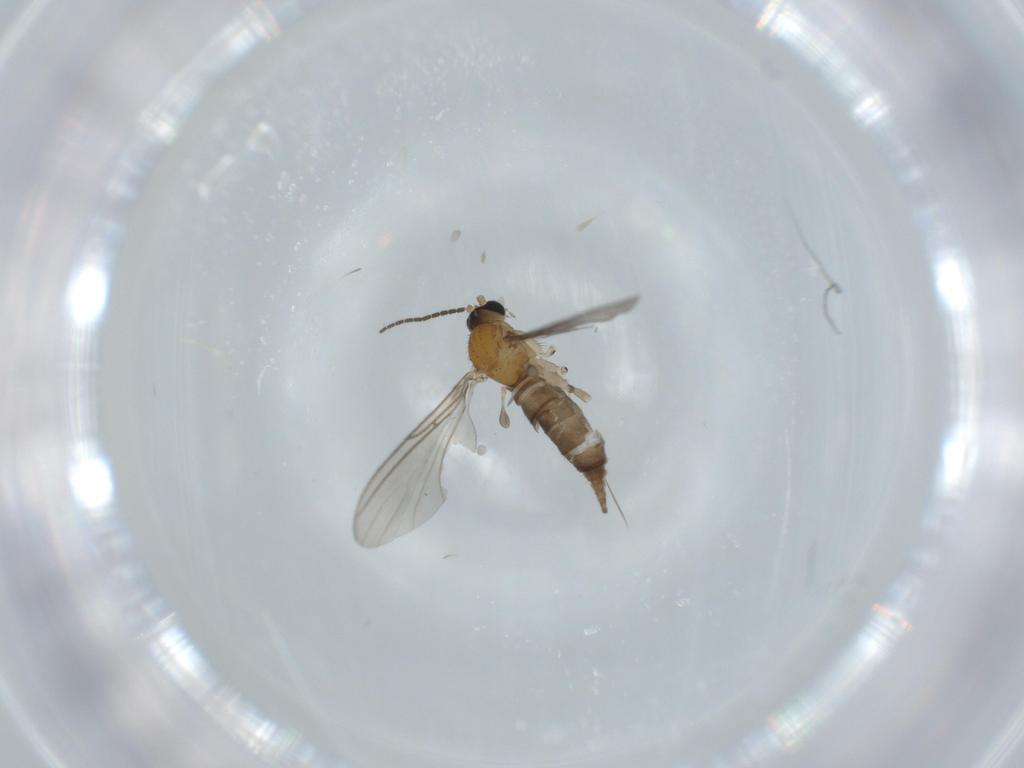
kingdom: Animalia
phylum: Arthropoda
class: Insecta
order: Diptera
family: Sciaridae
